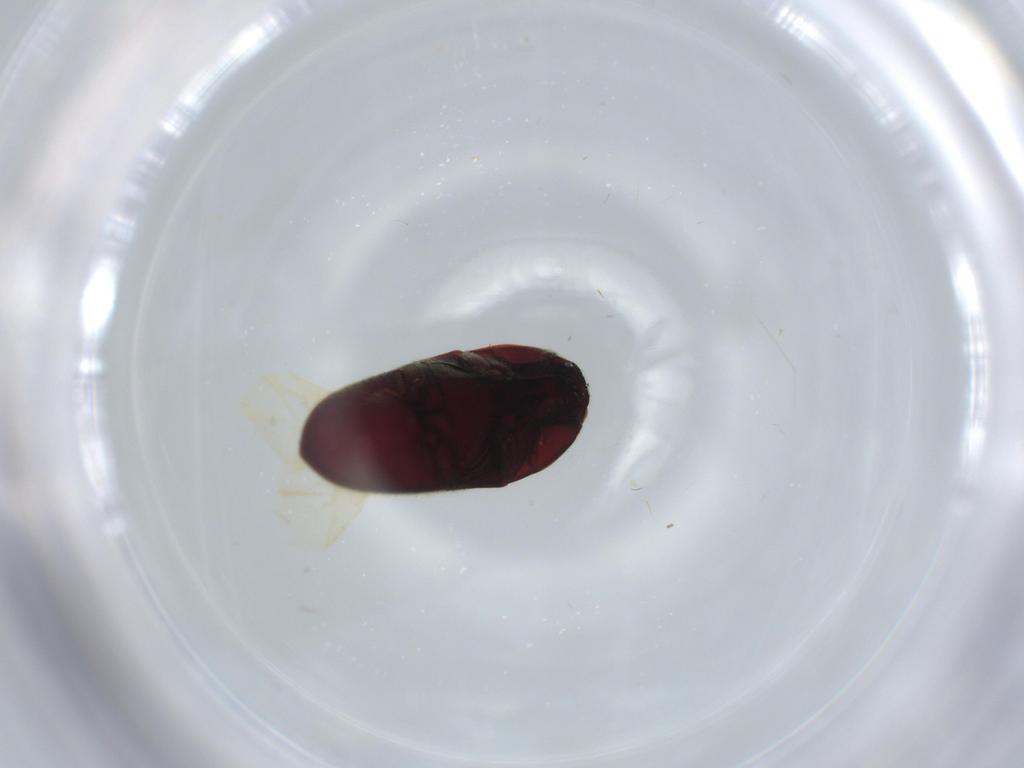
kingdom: Animalia
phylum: Arthropoda
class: Insecta
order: Coleoptera
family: Throscidae
